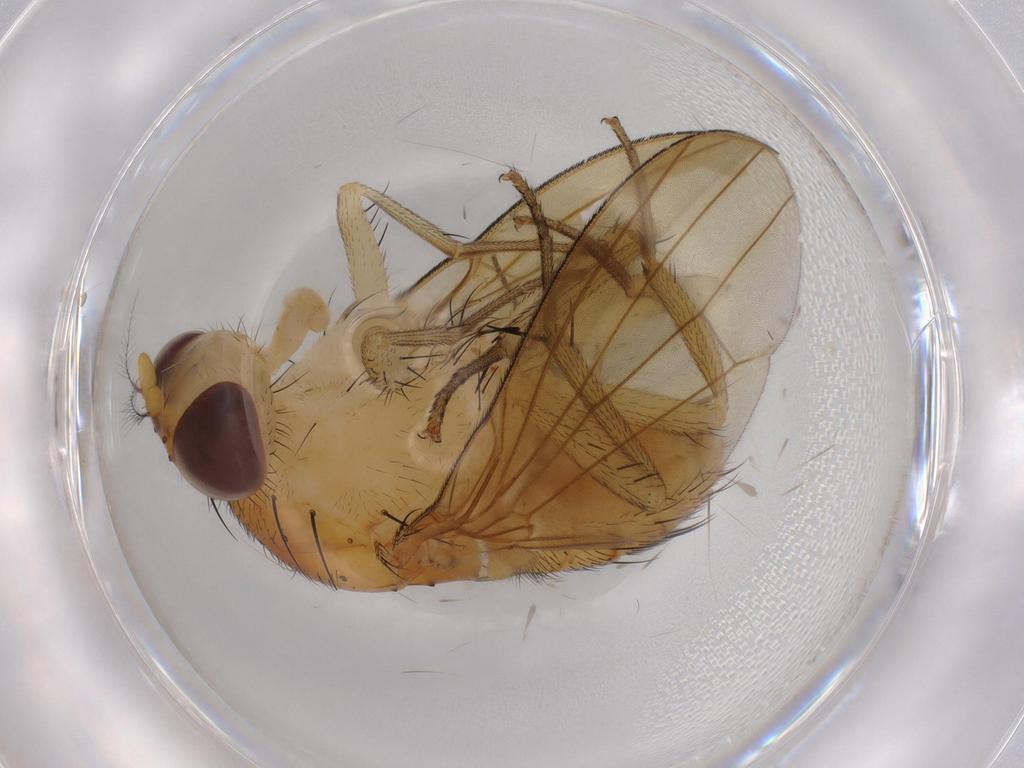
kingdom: Animalia
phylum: Arthropoda
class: Insecta
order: Diptera
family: Cecidomyiidae
